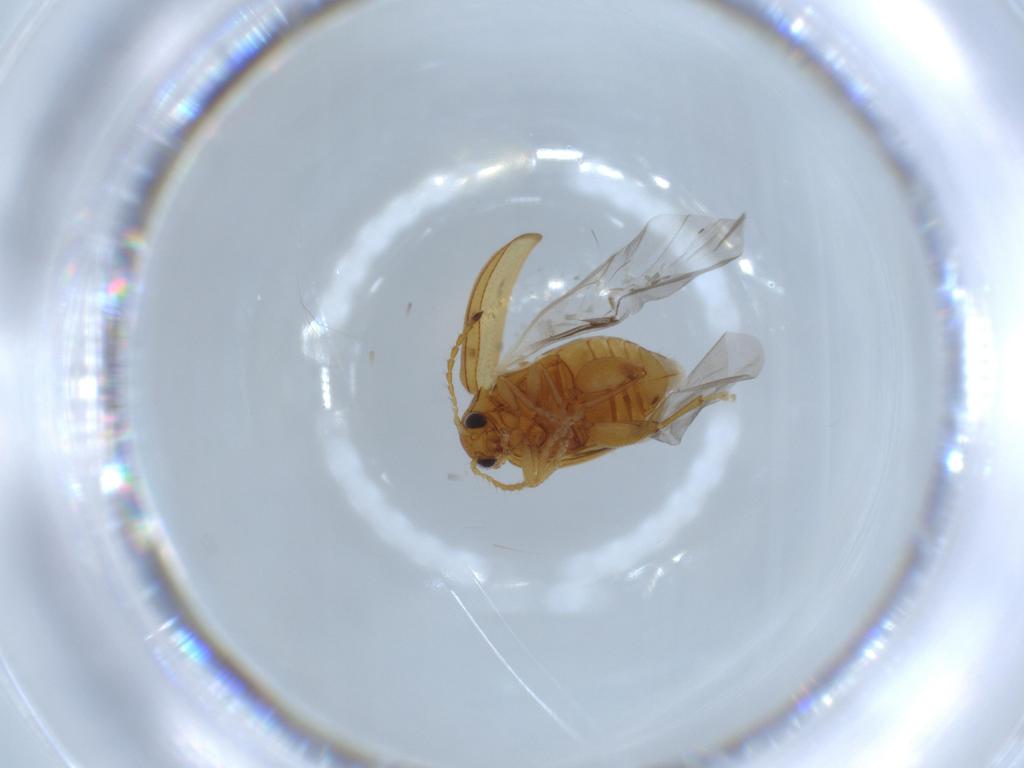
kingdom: Animalia
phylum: Arthropoda
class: Insecta
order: Coleoptera
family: Chrysomelidae
